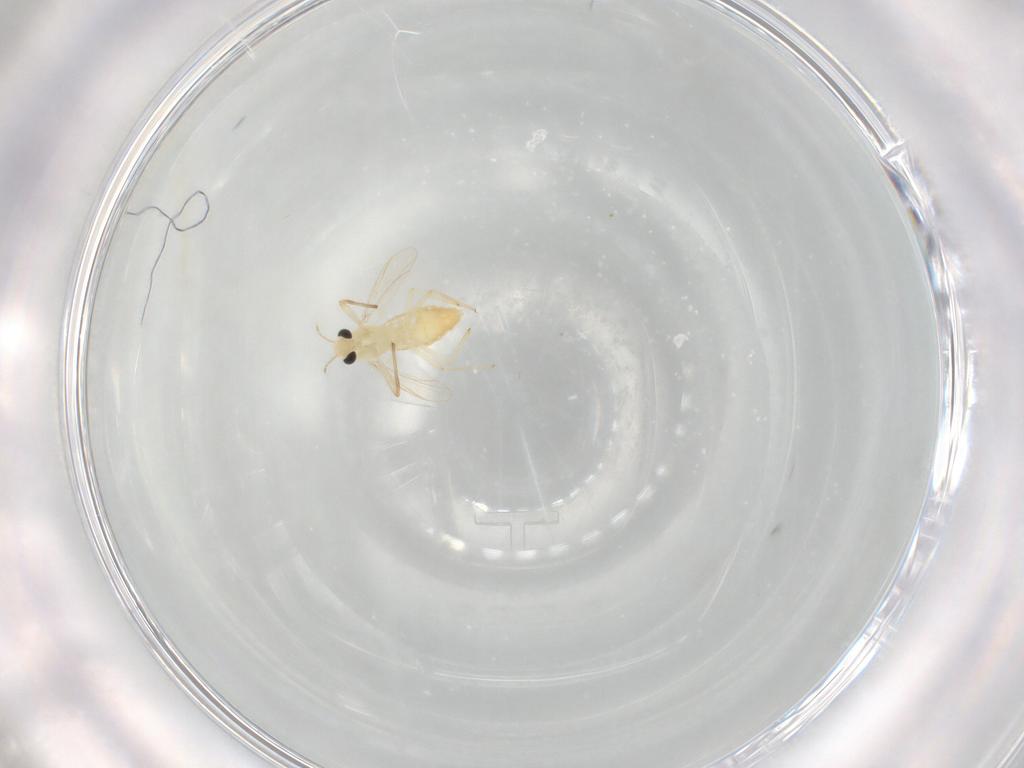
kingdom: Animalia
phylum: Arthropoda
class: Insecta
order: Diptera
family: Chironomidae
